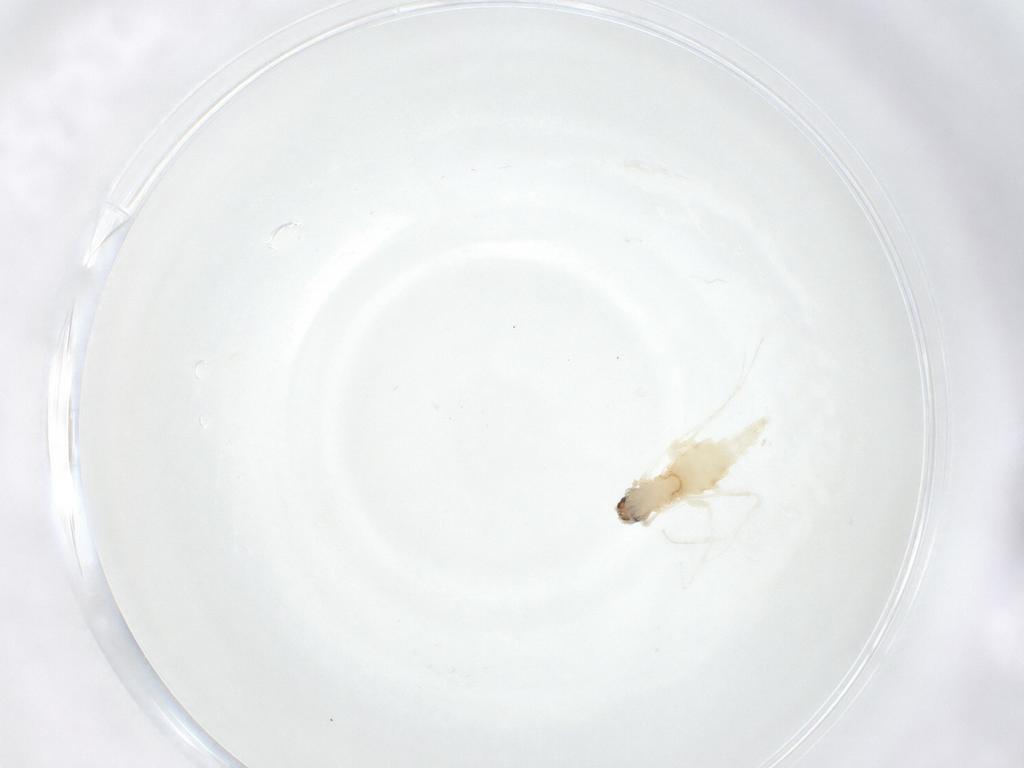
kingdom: Animalia
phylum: Arthropoda
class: Insecta
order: Diptera
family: Sciaridae
